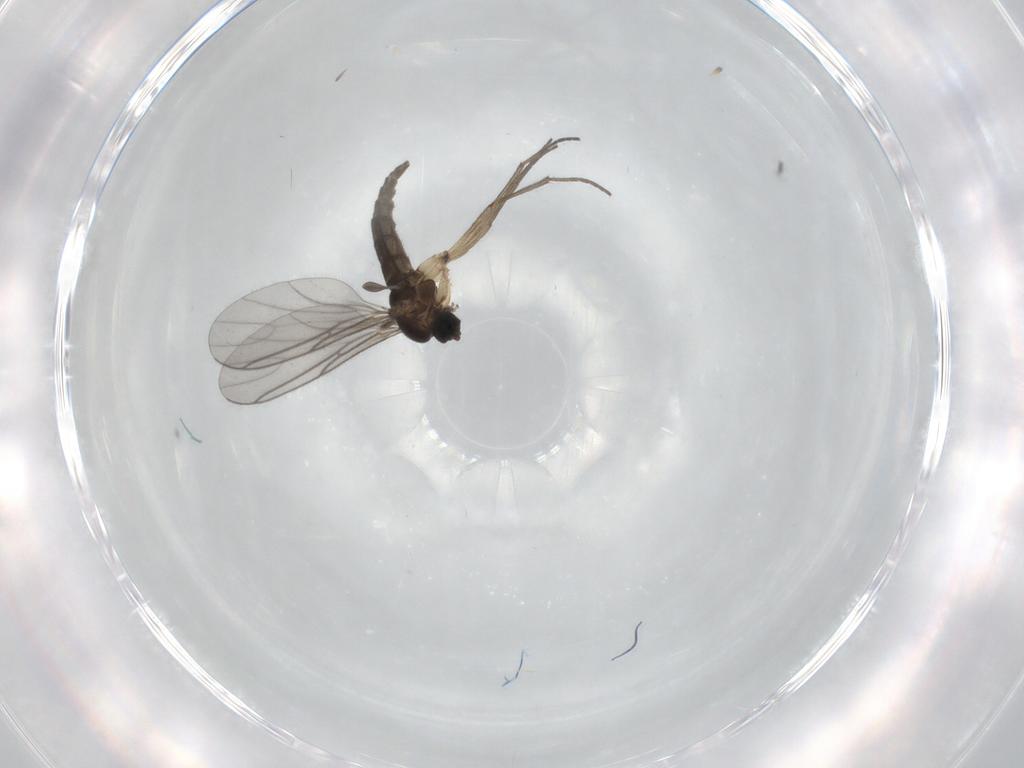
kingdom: Animalia
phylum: Arthropoda
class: Insecta
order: Diptera
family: Sciaridae
